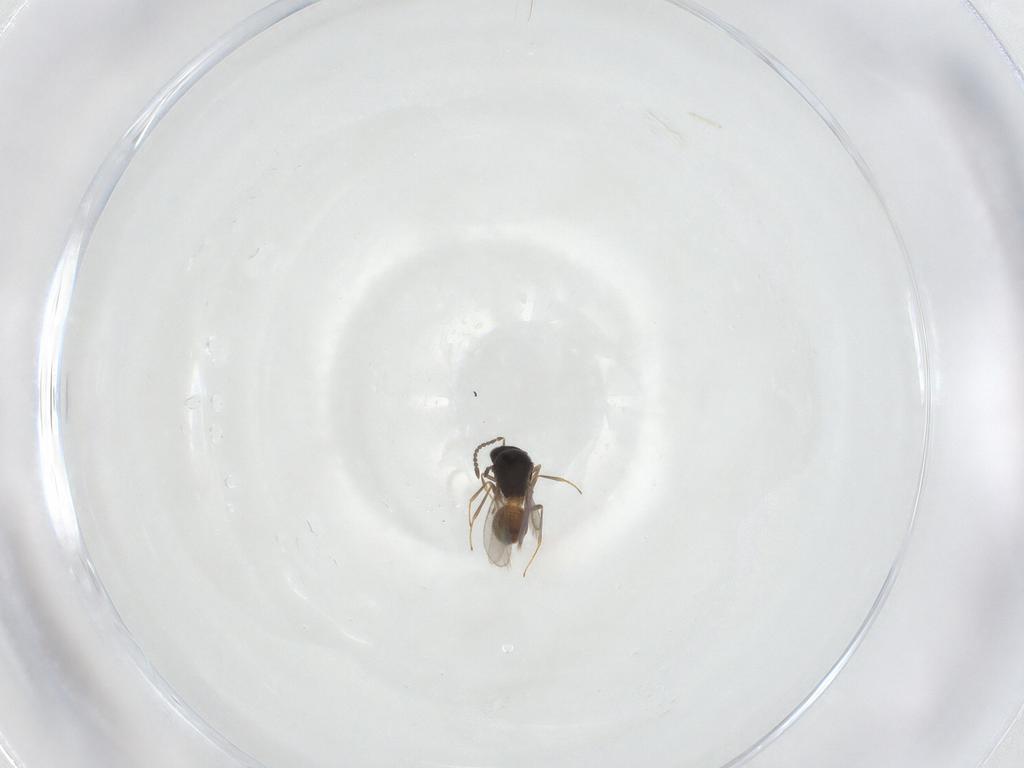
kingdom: Animalia
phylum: Arthropoda
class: Insecta
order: Hymenoptera
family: Scelionidae
